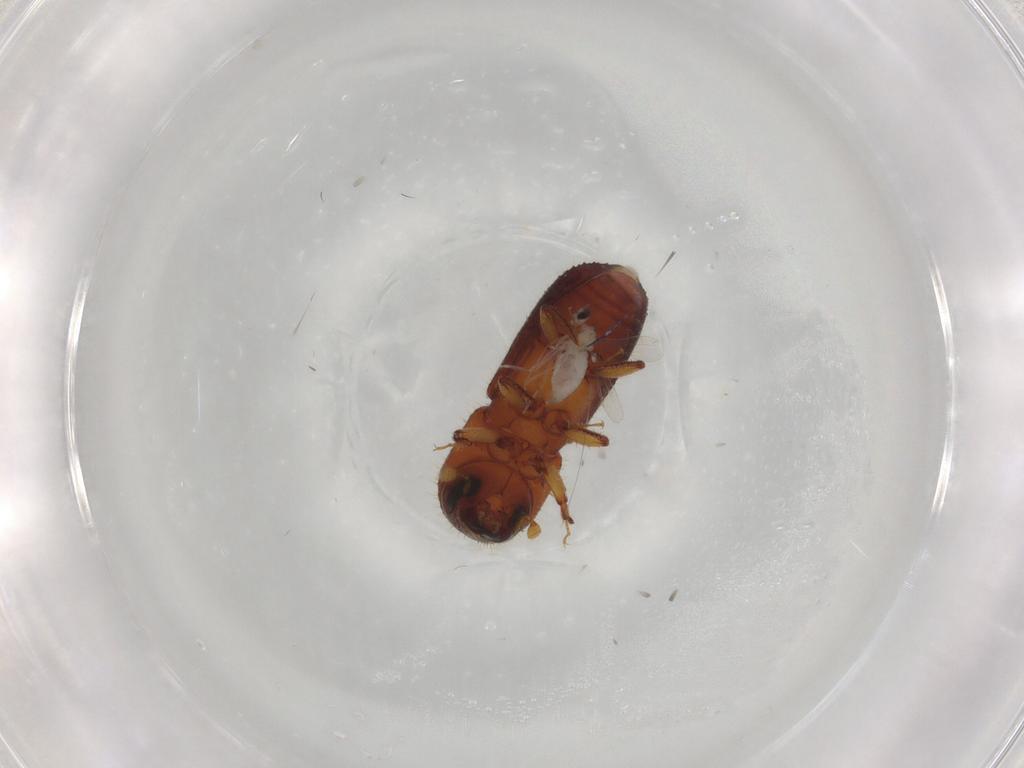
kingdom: Animalia
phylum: Arthropoda
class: Insecta
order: Coleoptera
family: Curculionidae
